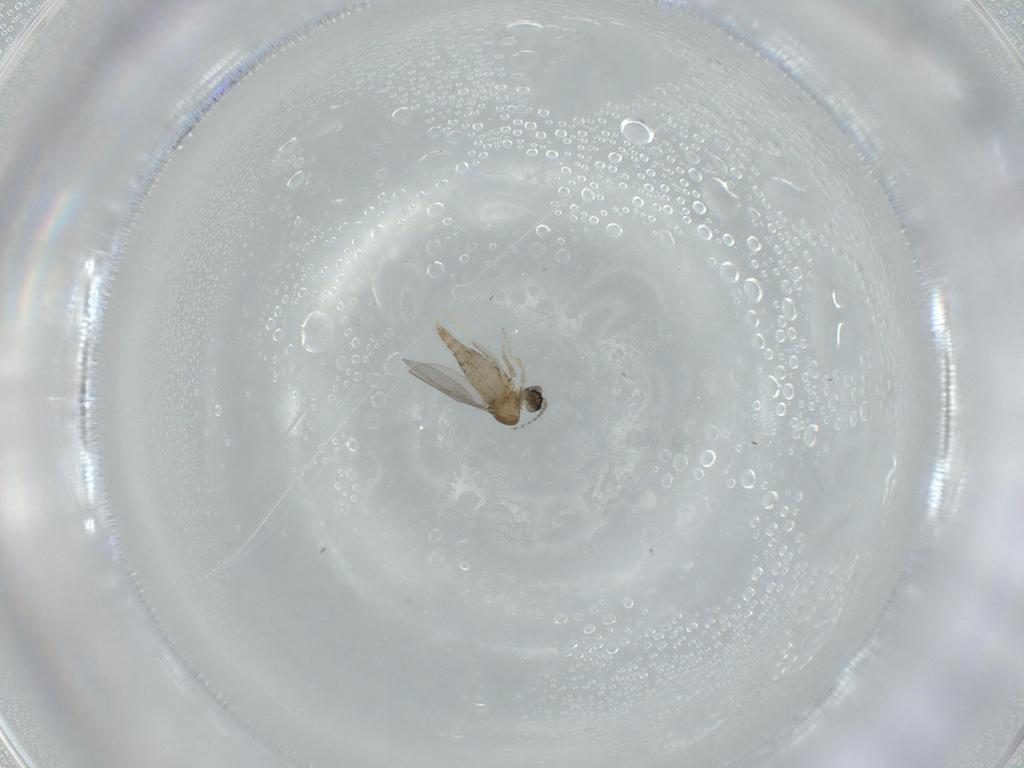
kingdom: Animalia
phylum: Arthropoda
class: Insecta
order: Diptera
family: Cecidomyiidae
